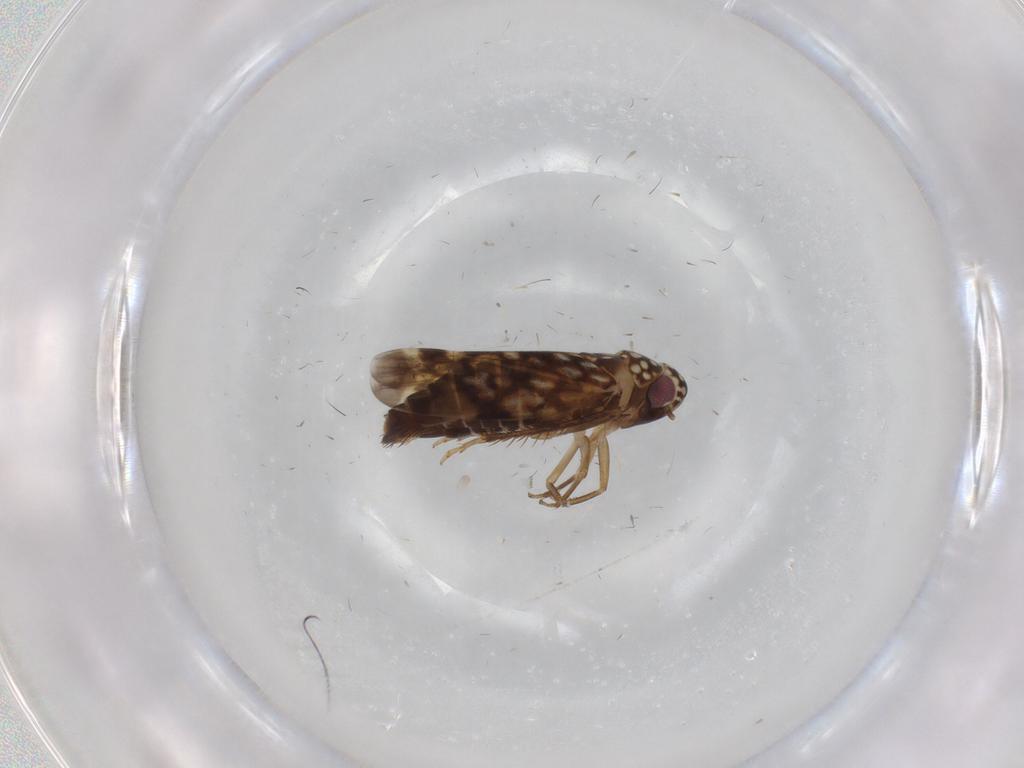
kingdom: Animalia
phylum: Arthropoda
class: Insecta
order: Hemiptera
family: Cicadellidae
